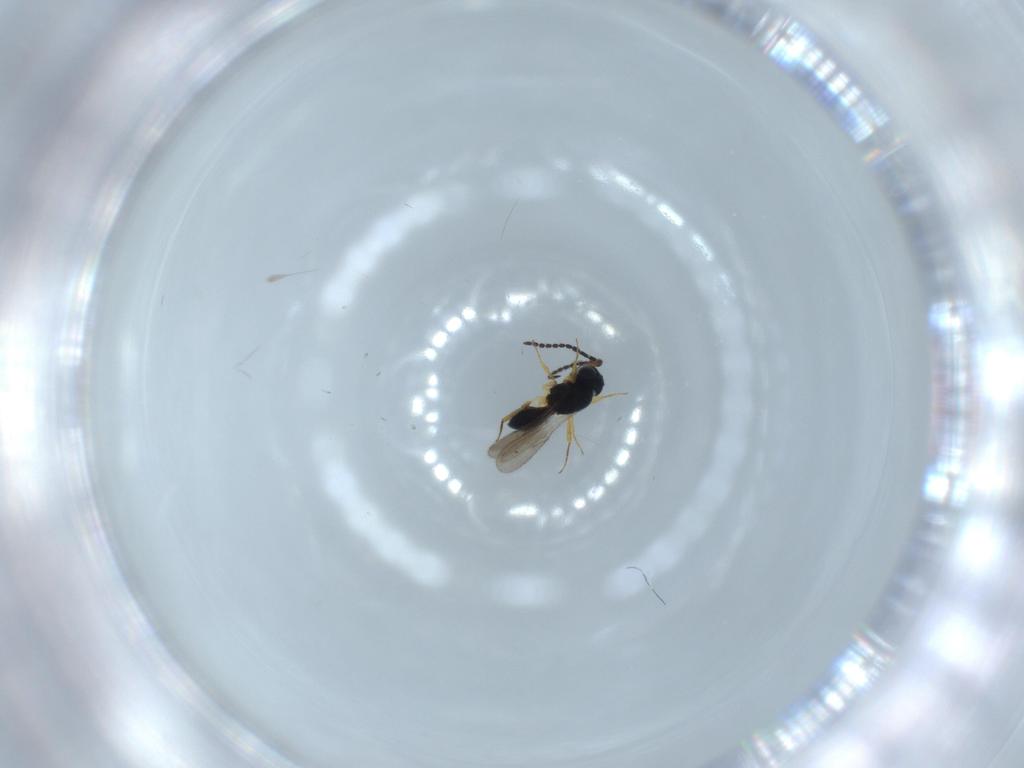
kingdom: Animalia
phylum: Arthropoda
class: Insecta
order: Hymenoptera
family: Scelionidae
